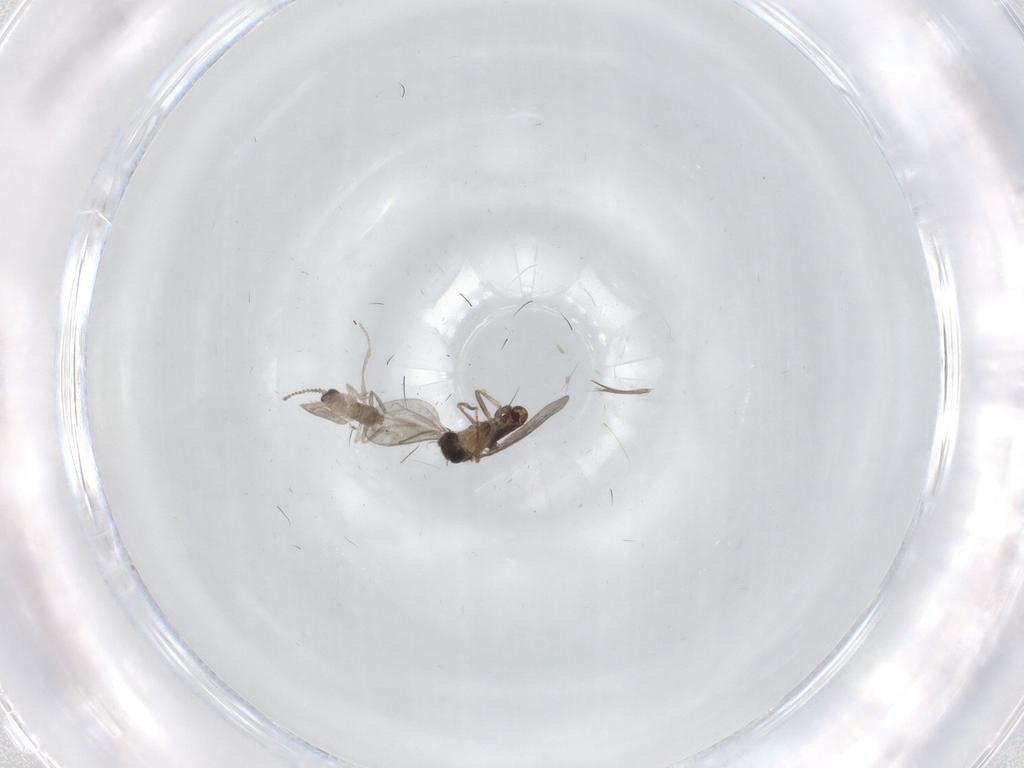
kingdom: Animalia
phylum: Arthropoda
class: Insecta
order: Diptera
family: Cecidomyiidae
